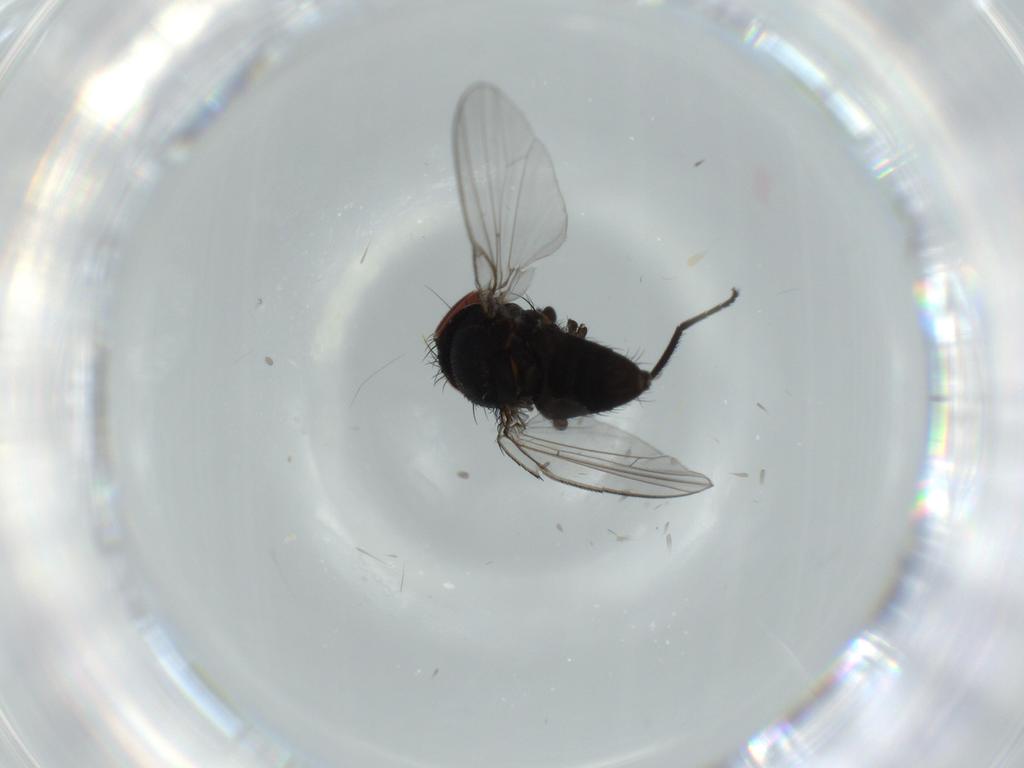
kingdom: Animalia
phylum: Arthropoda
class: Insecta
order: Diptera
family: Milichiidae
